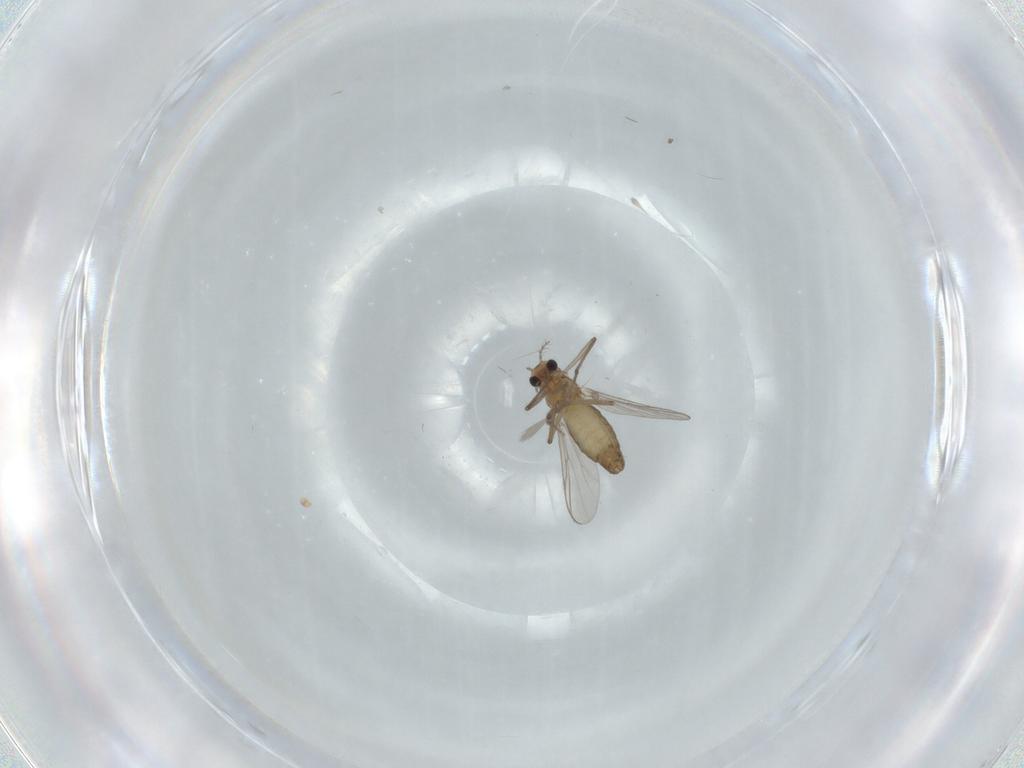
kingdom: Animalia
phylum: Arthropoda
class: Insecta
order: Diptera
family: Chironomidae
